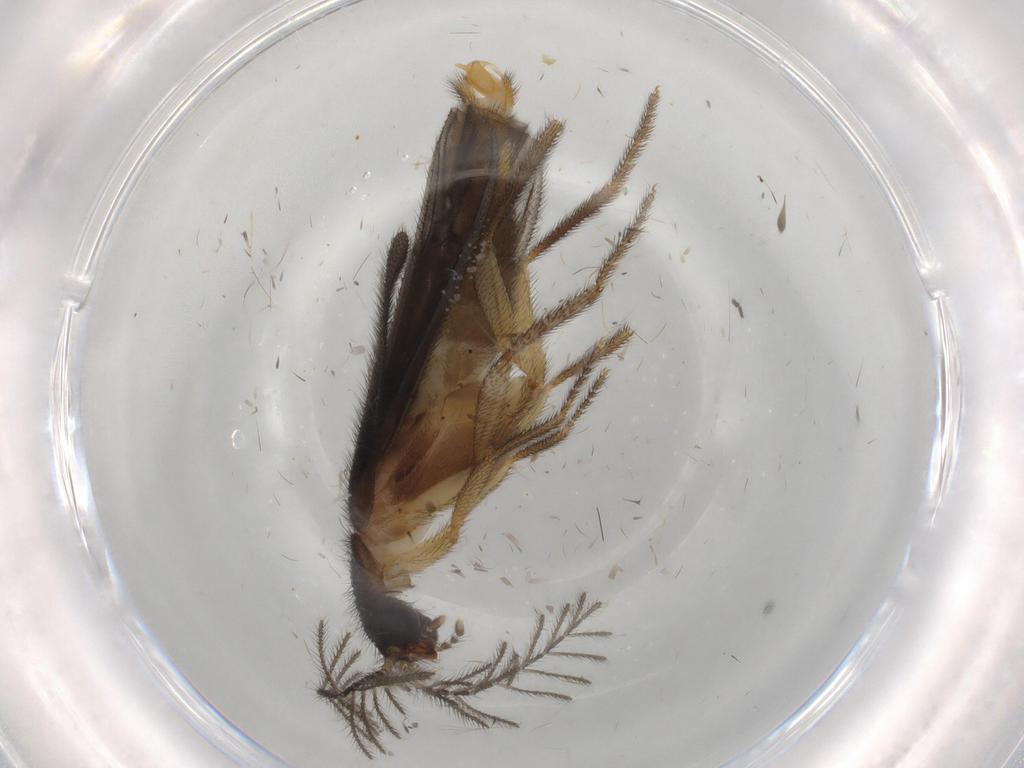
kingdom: Animalia
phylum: Arthropoda
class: Insecta
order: Coleoptera
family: Phengodidae
